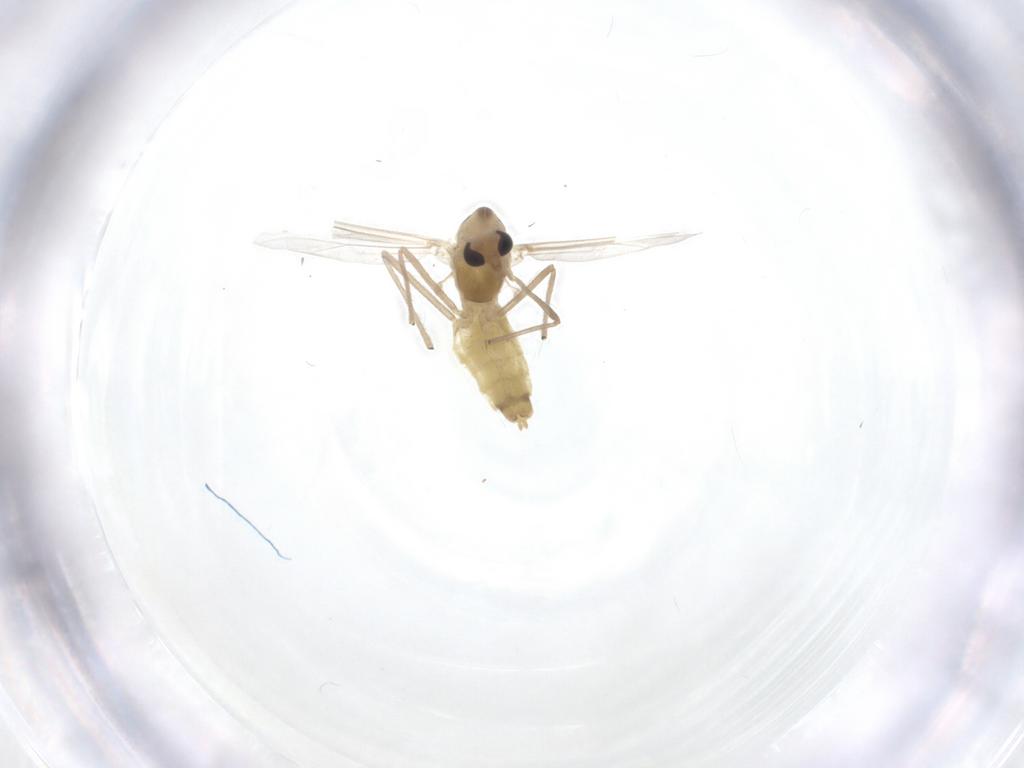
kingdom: Animalia
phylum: Arthropoda
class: Insecta
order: Diptera
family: Chironomidae
